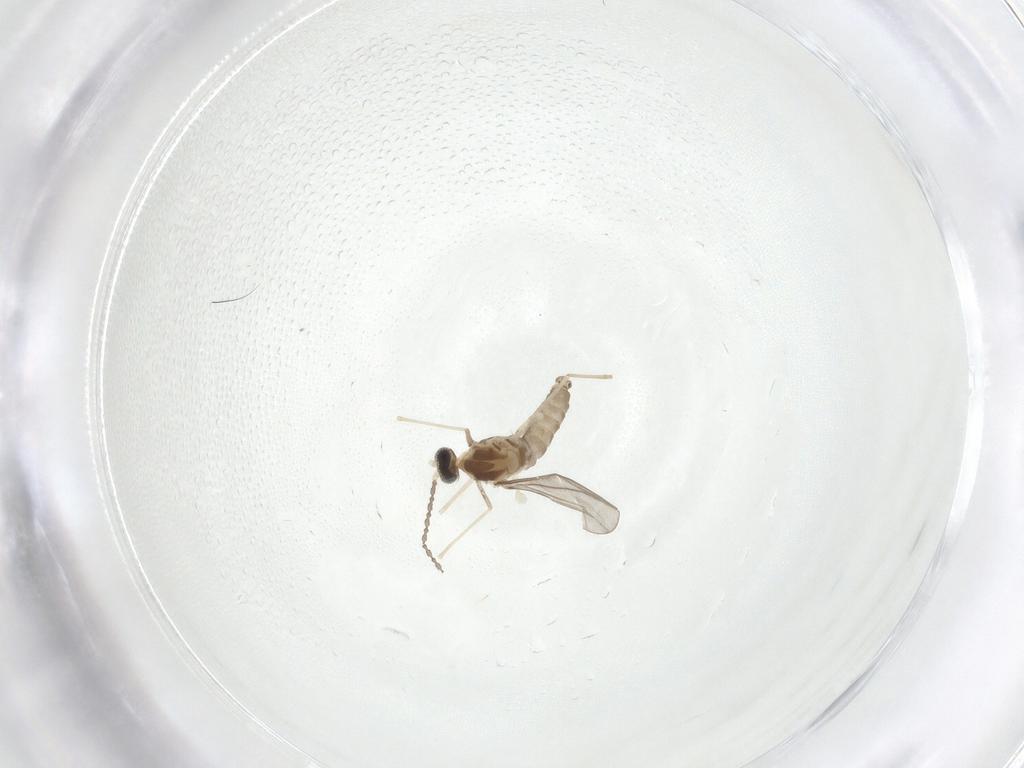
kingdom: Animalia
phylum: Arthropoda
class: Insecta
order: Diptera
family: Cecidomyiidae
